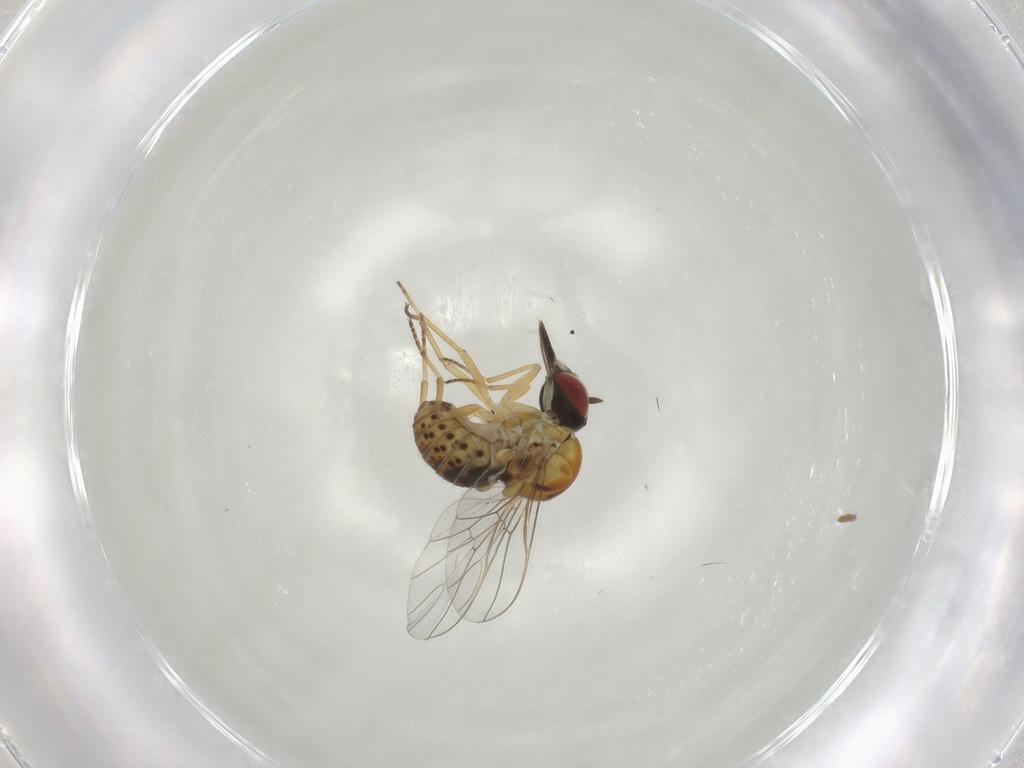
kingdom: Animalia
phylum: Arthropoda
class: Insecta
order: Diptera
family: Bombyliidae
